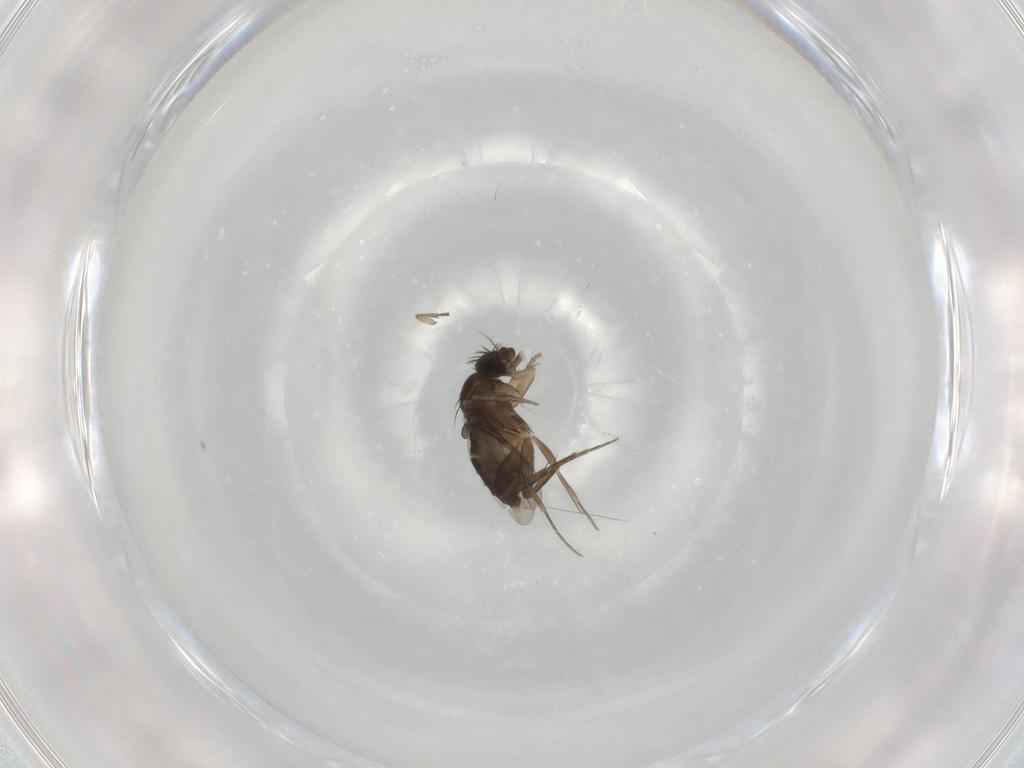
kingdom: Animalia
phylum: Arthropoda
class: Insecta
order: Diptera
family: Phoridae
